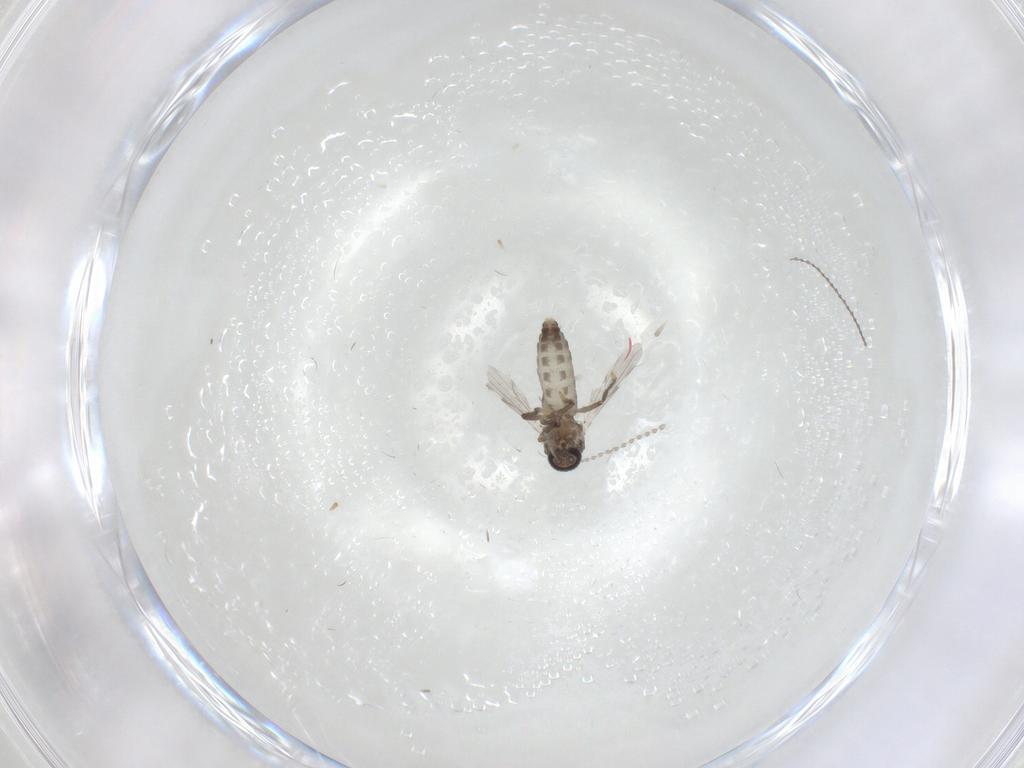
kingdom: Animalia
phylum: Arthropoda
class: Insecta
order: Diptera
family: Ceratopogonidae
